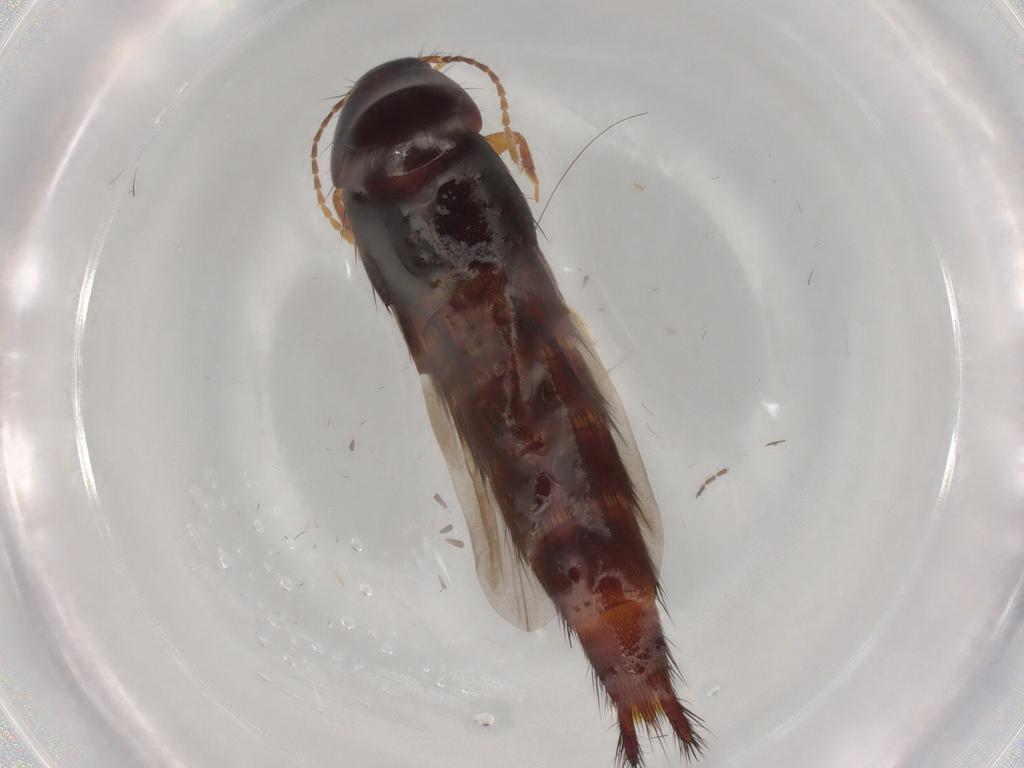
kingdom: Animalia
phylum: Arthropoda
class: Insecta
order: Coleoptera
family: Staphylinidae
